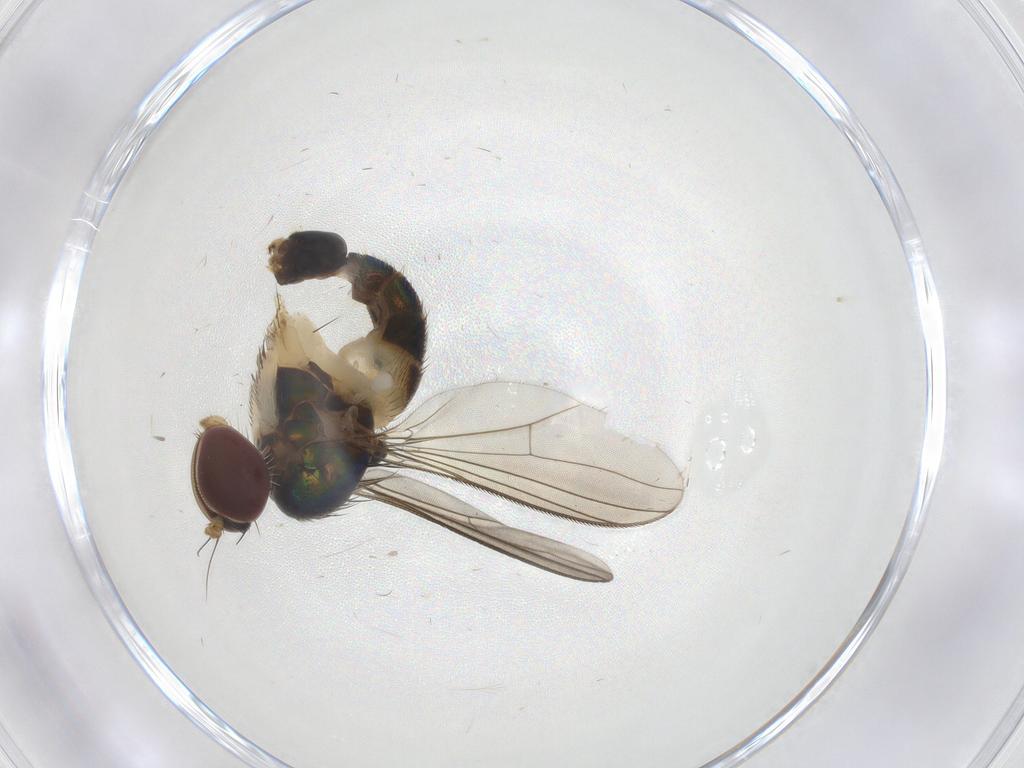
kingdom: Animalia
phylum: Arthropoda
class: Insecta
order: Diptera
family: Dolichopodidae
